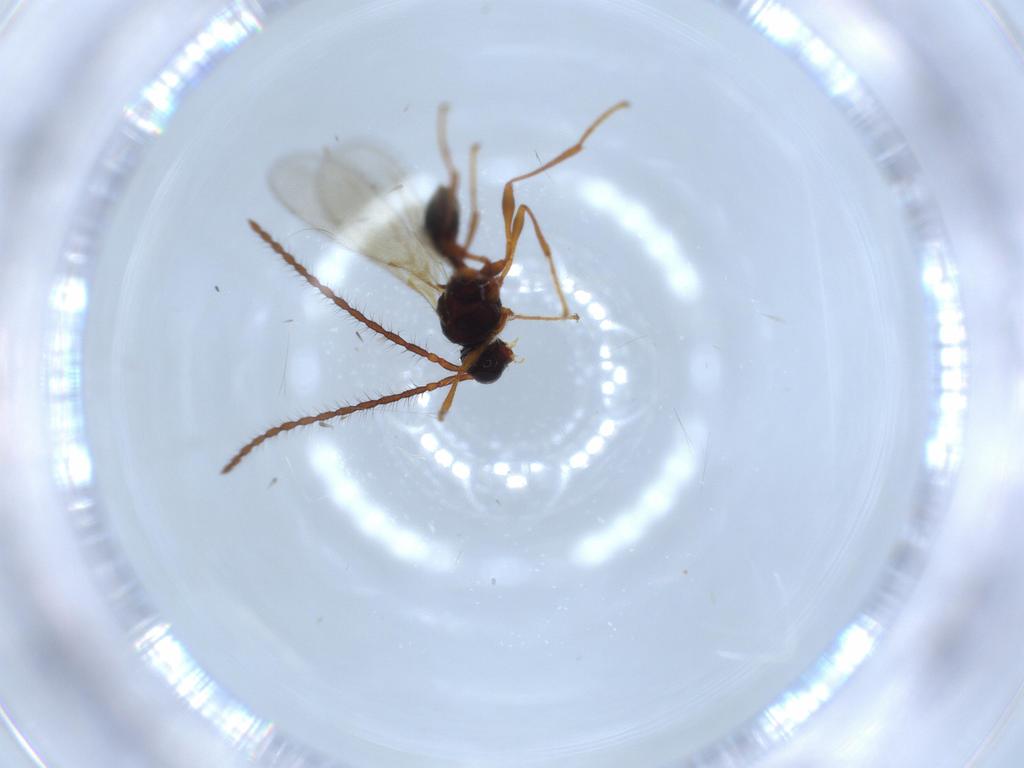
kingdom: Animalia
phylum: Arthropoda
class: Insecta
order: Hymenoptera
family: Diapriidae
